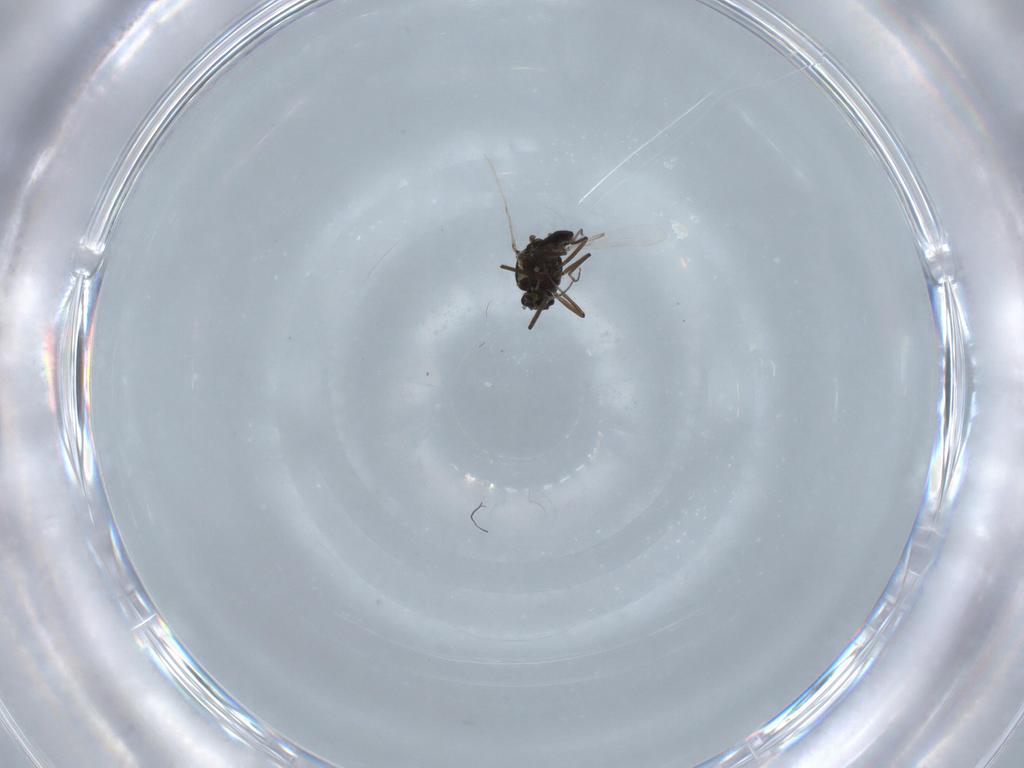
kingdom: Animalia
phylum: Arthropoda
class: Insecta
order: Diptera
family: Ceratopogonidae
